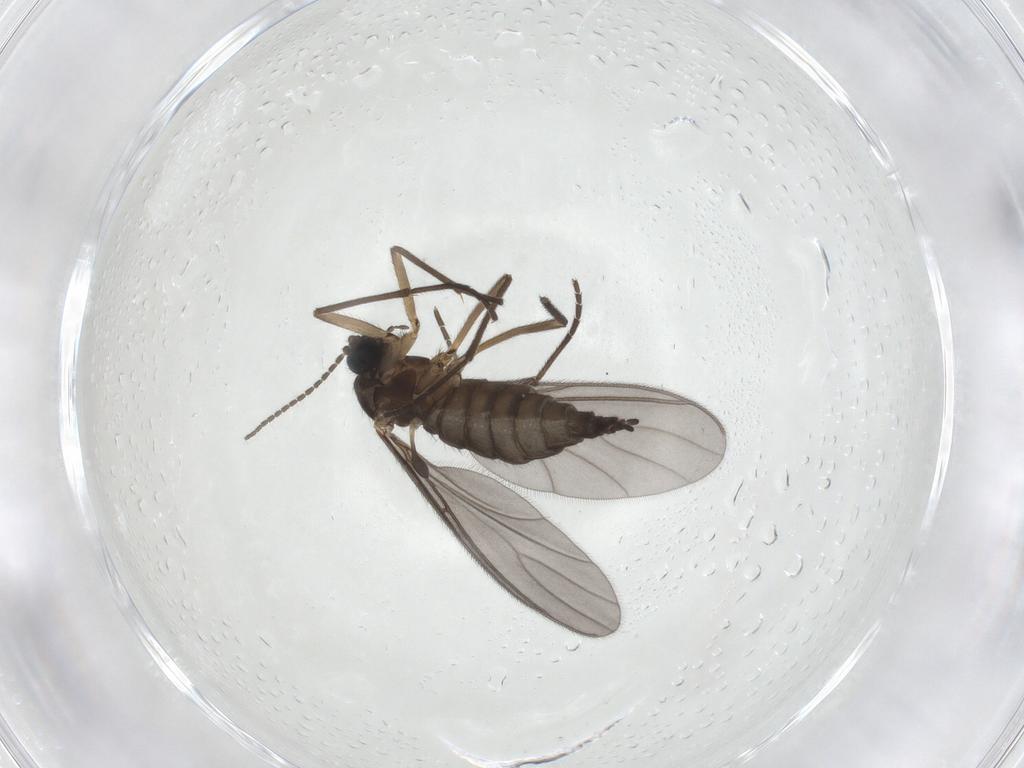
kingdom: Animalia
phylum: Arthropoda
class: Insecta
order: Diptera
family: Sciaridae
